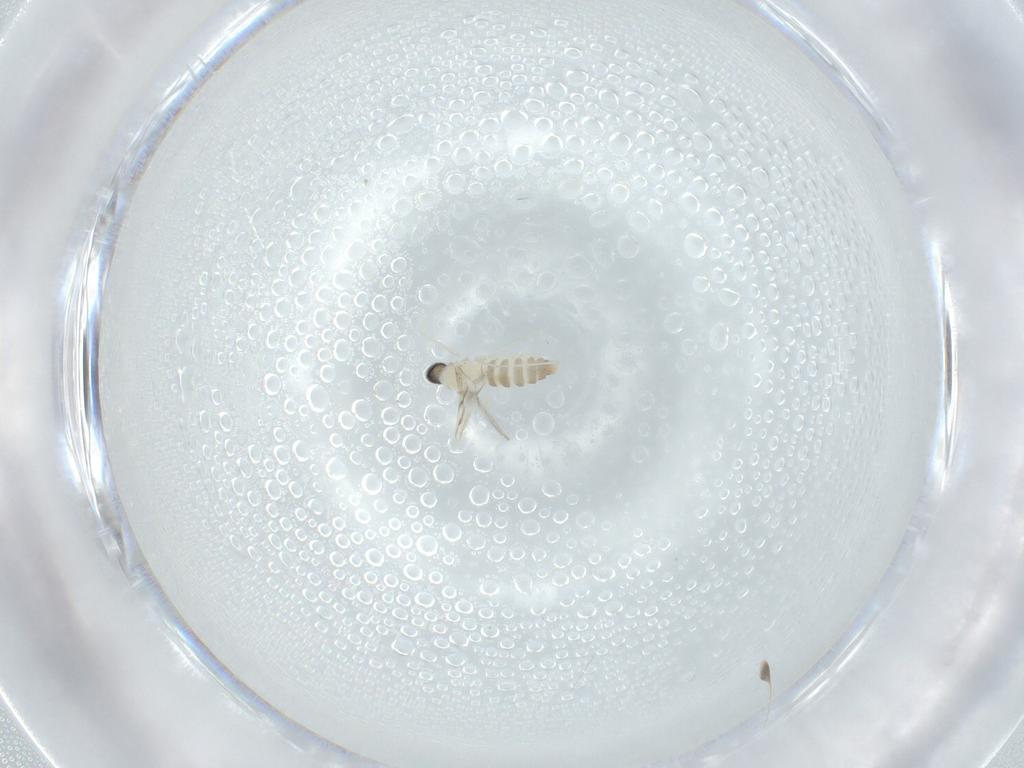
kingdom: Animalia
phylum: Arthropoda
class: Insecta
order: Diptera
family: Cecidomyiidae
